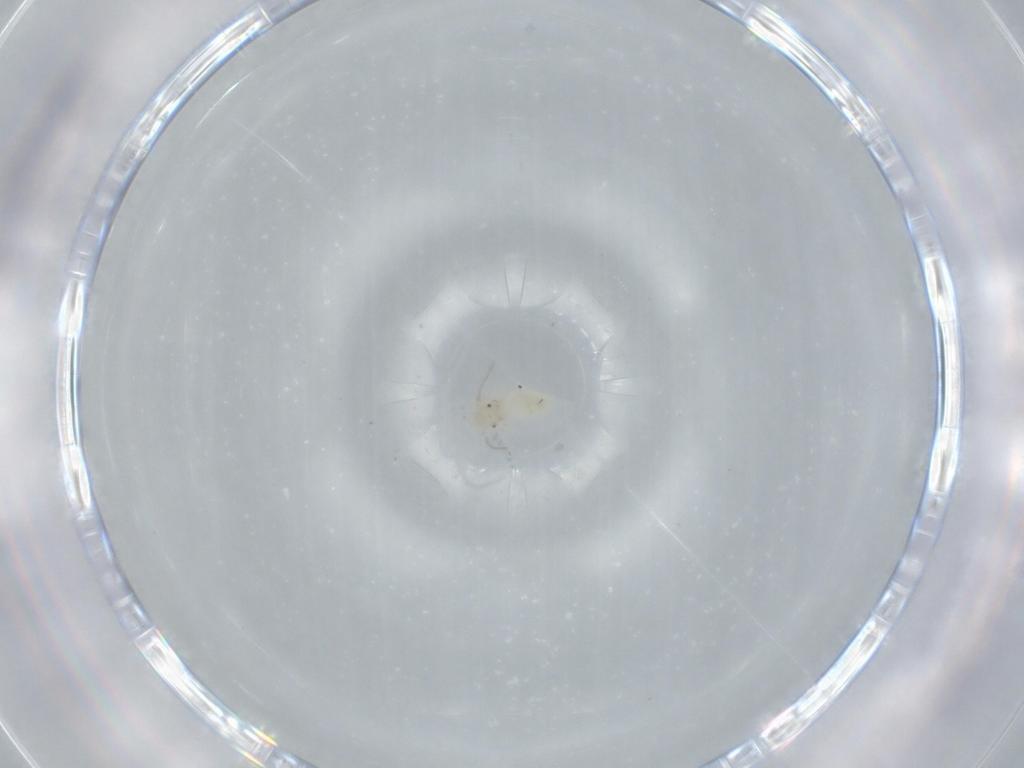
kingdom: Animalia
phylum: Arthropoda
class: Insecta
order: Psocodea
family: Caeciliusidae
